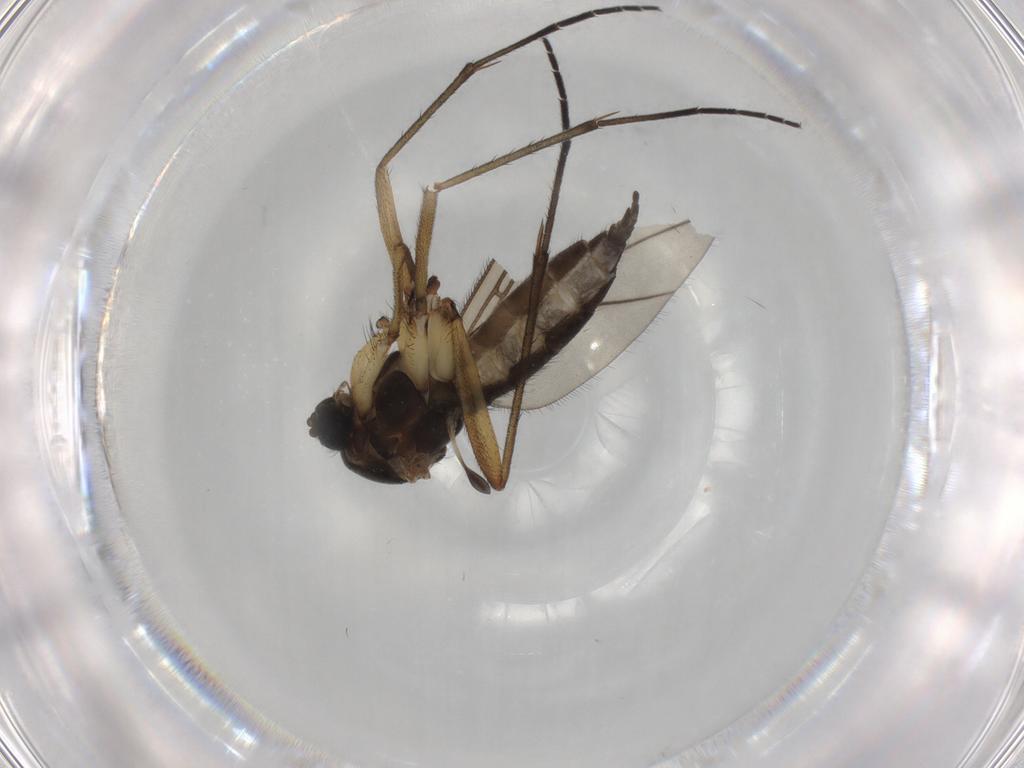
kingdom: Animalia
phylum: Arthropoda
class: Insecta
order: Diptera
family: Sciaridae
